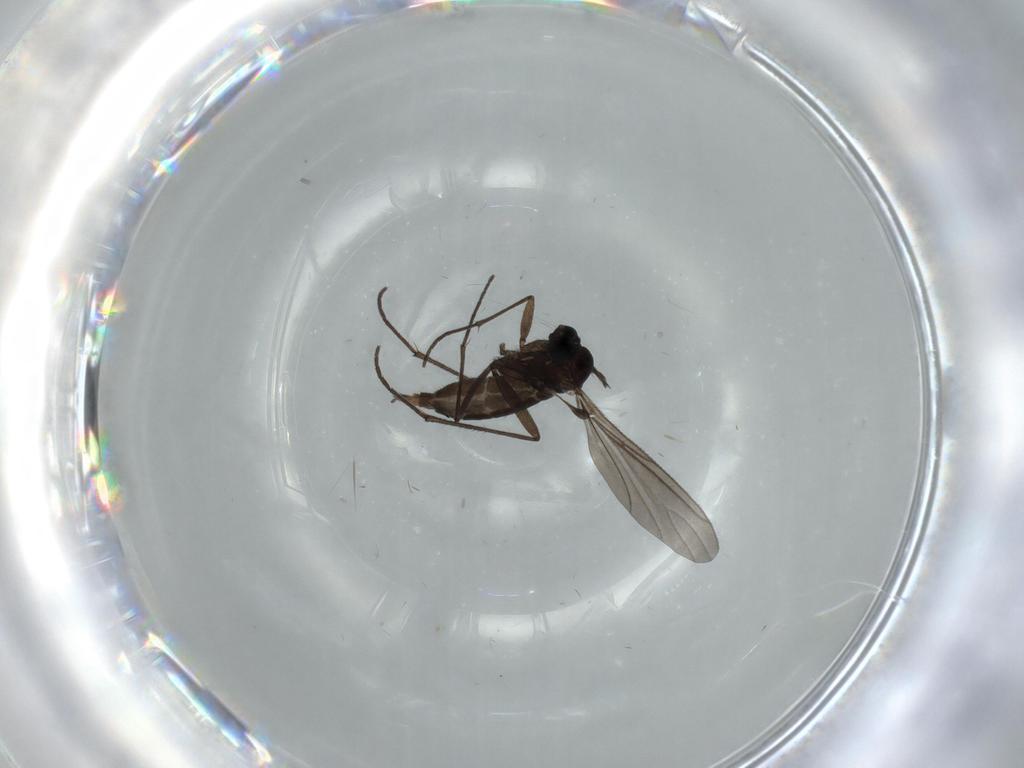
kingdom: Animalia
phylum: Arthropoda
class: Insecta
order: Diptera
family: Sciaridae
